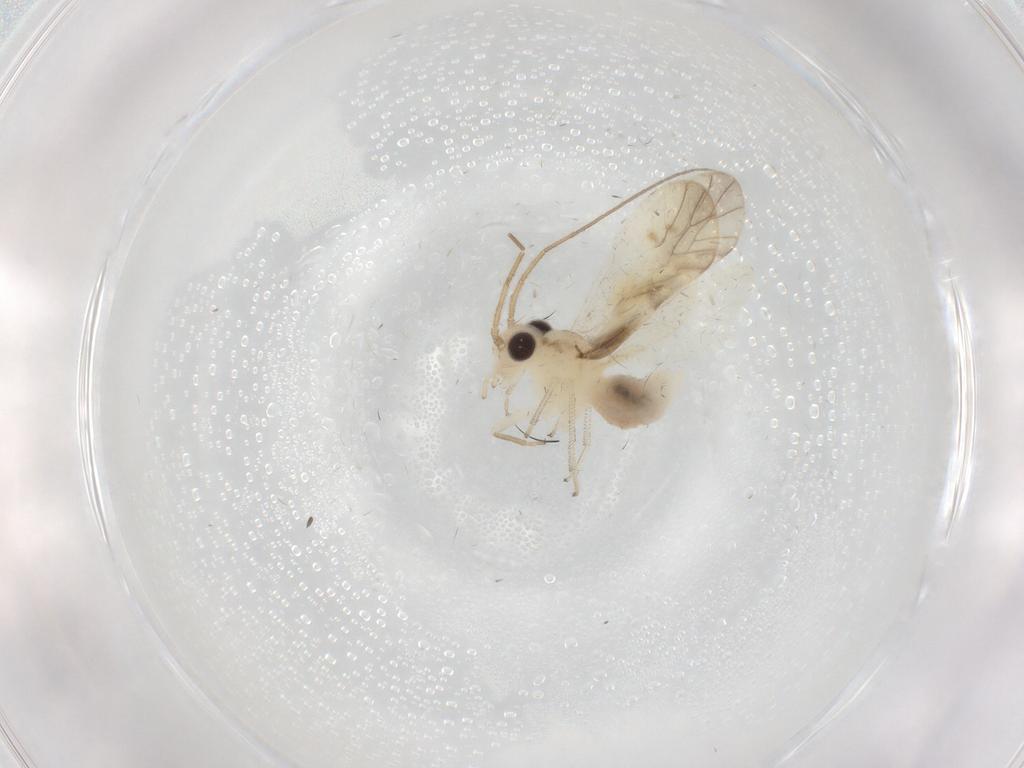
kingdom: Animalia
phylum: Arthropoda
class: Insecta
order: Psocodea
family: Caeciliusidae
